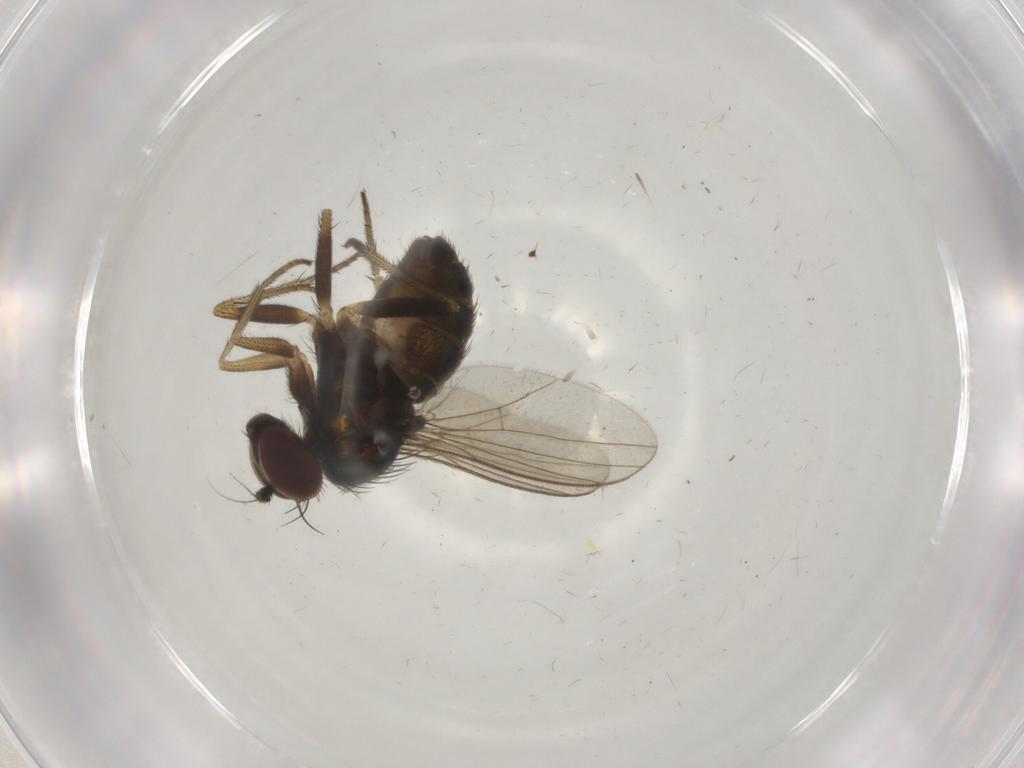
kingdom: Animalia
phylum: Arthropoda
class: Insecta
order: Diptera
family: Dolichopodidae
